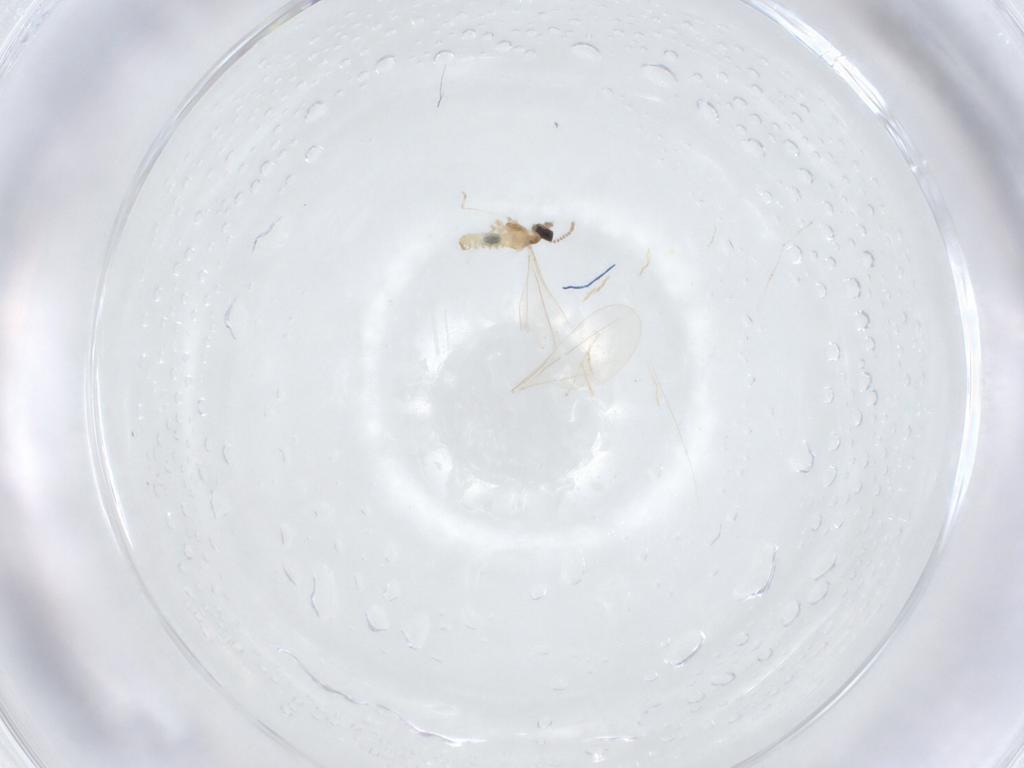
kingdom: Animalia
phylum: Arthropoda
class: Insecta
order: Diptera
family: Cecidomyiidae
